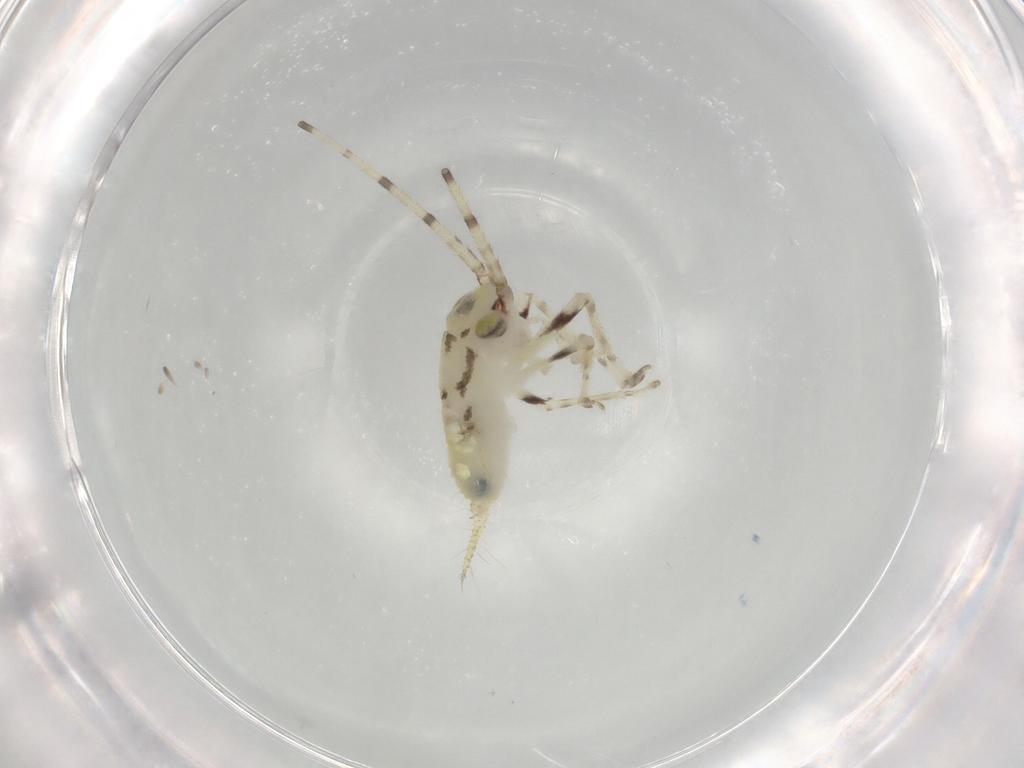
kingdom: Animalia
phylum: Arthropoda
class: Insecta
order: Orthoptera
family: Trigonidiidae
